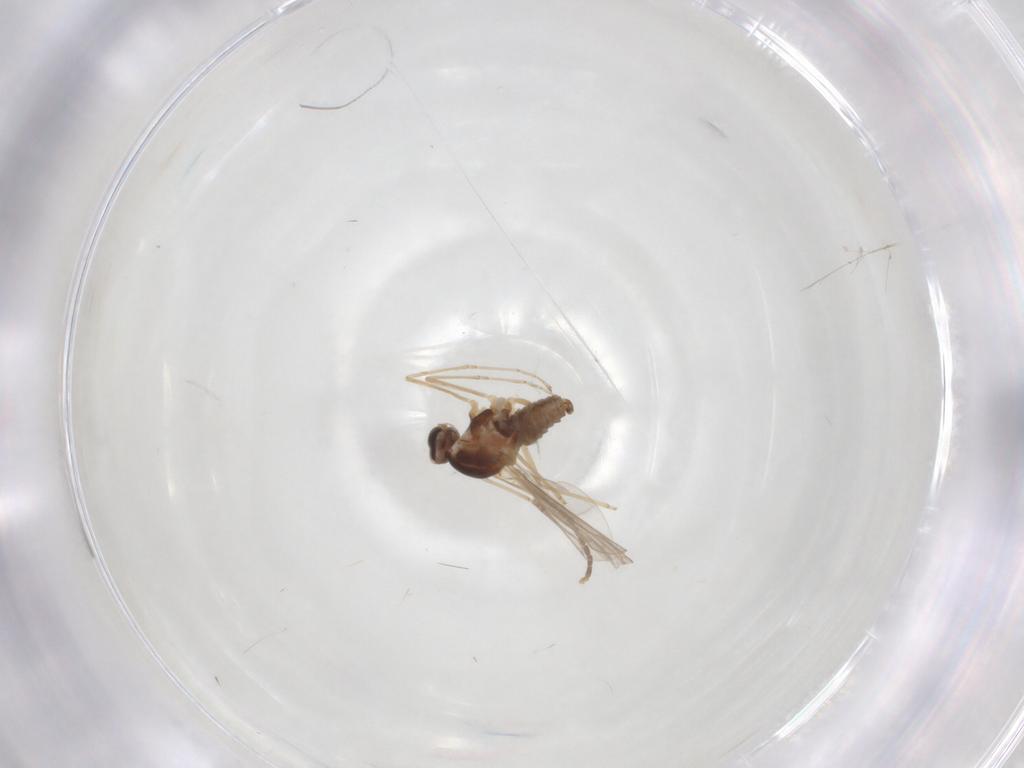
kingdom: Animalia
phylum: Arthropoda
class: Insecta
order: Diptera
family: Cecidomyiidae
